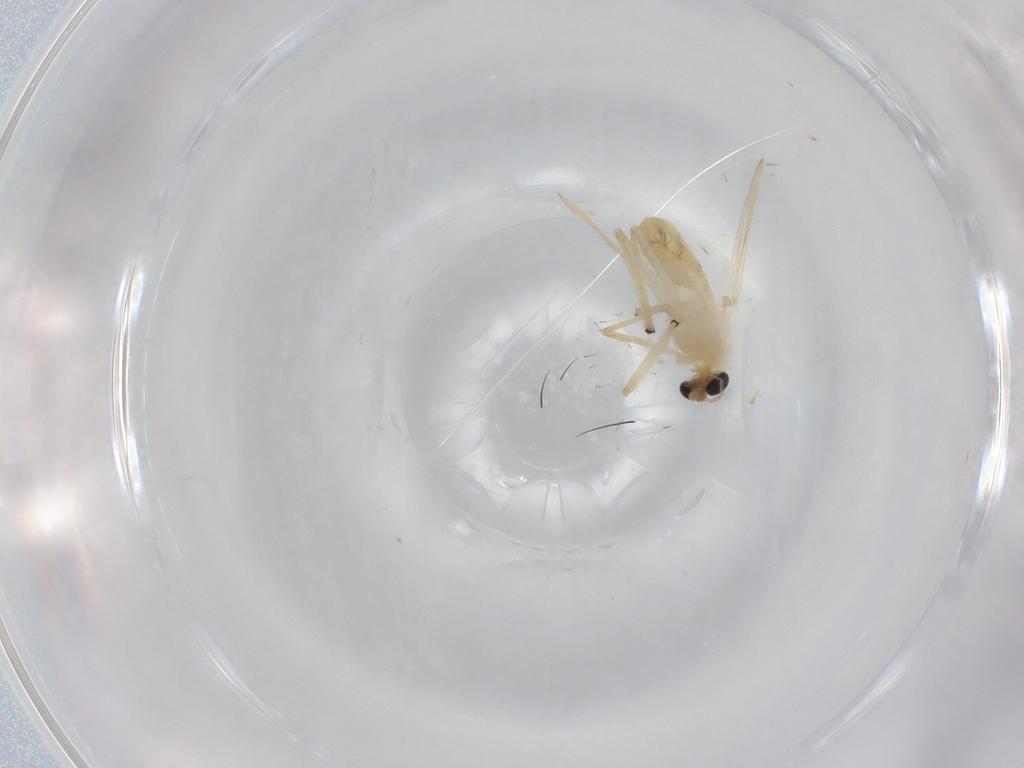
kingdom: Animalia
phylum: Arthropoda
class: Insecta
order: Diptera
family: Chironomidae
